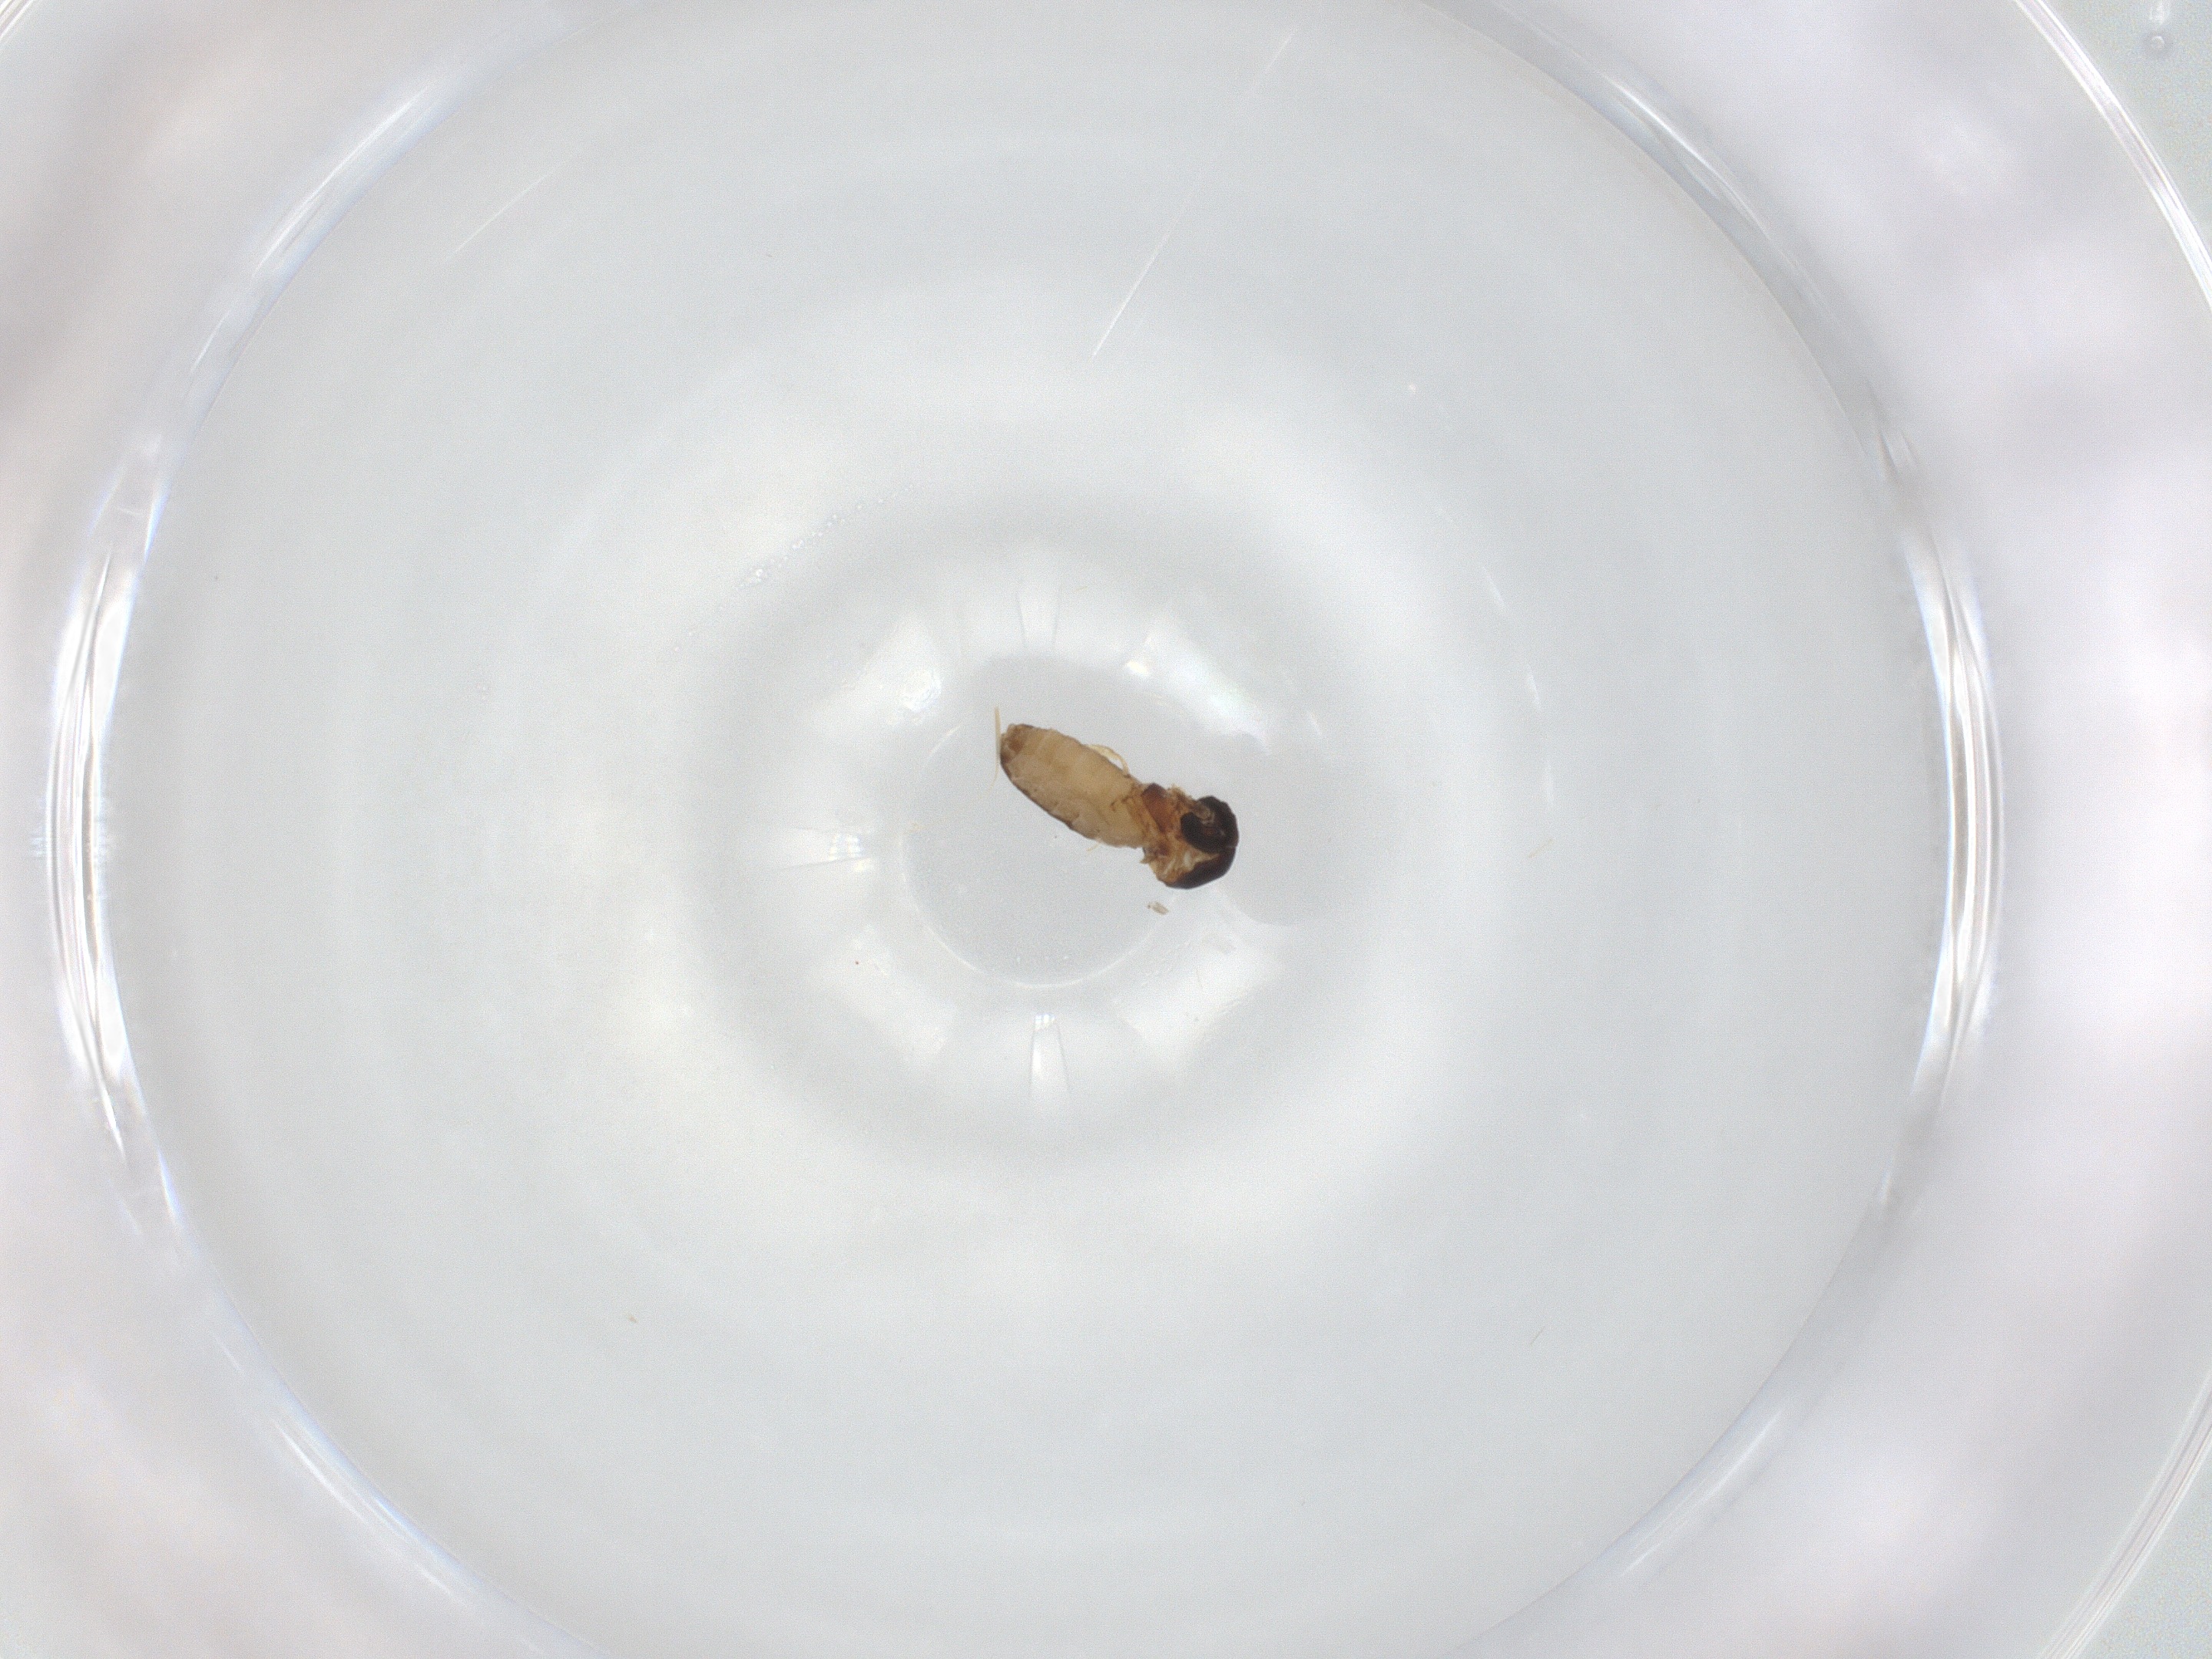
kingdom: Animalia
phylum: Arthropoda
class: Insecta
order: Diptera
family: Ceratopogonidae
